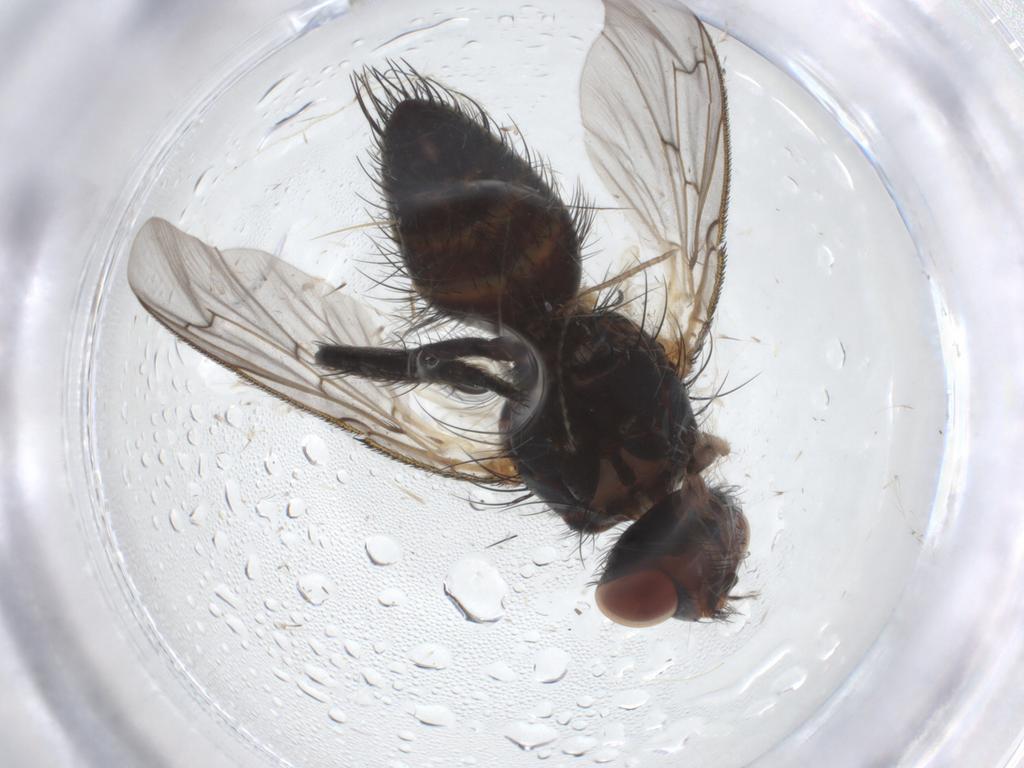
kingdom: Animalia
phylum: Arthropoda
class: Insecta
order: Diptera
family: Tachinidae
